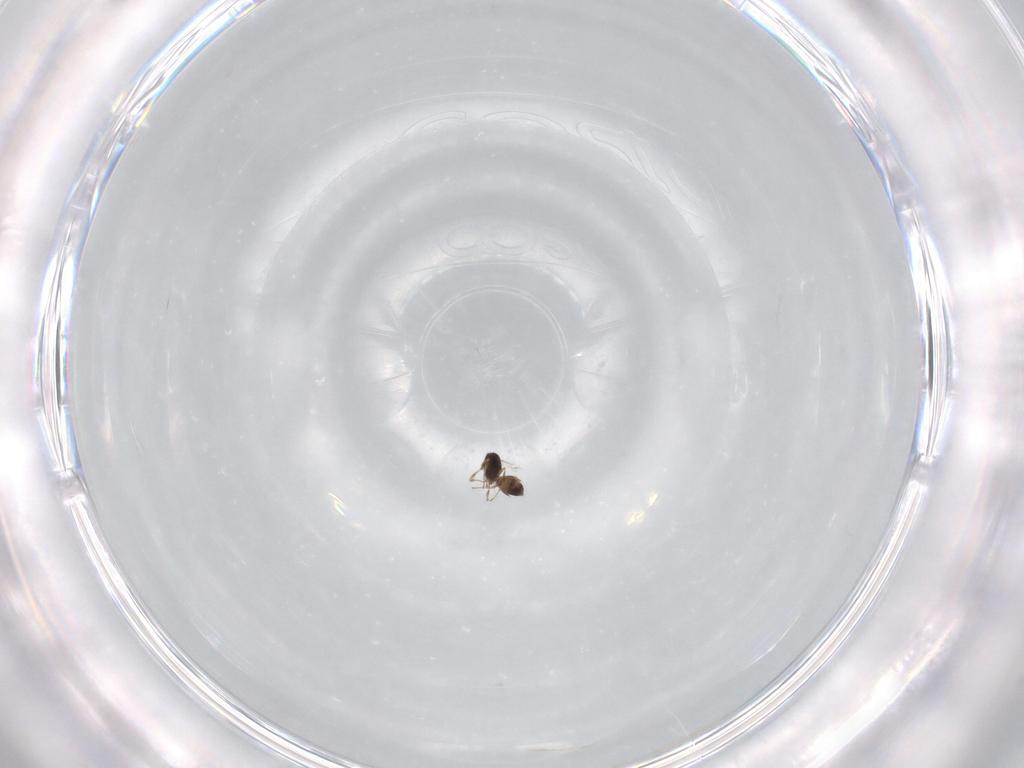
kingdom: Animalia
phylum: Arthropoda
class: Insecta
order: Hymenoptera
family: Scelionidae
